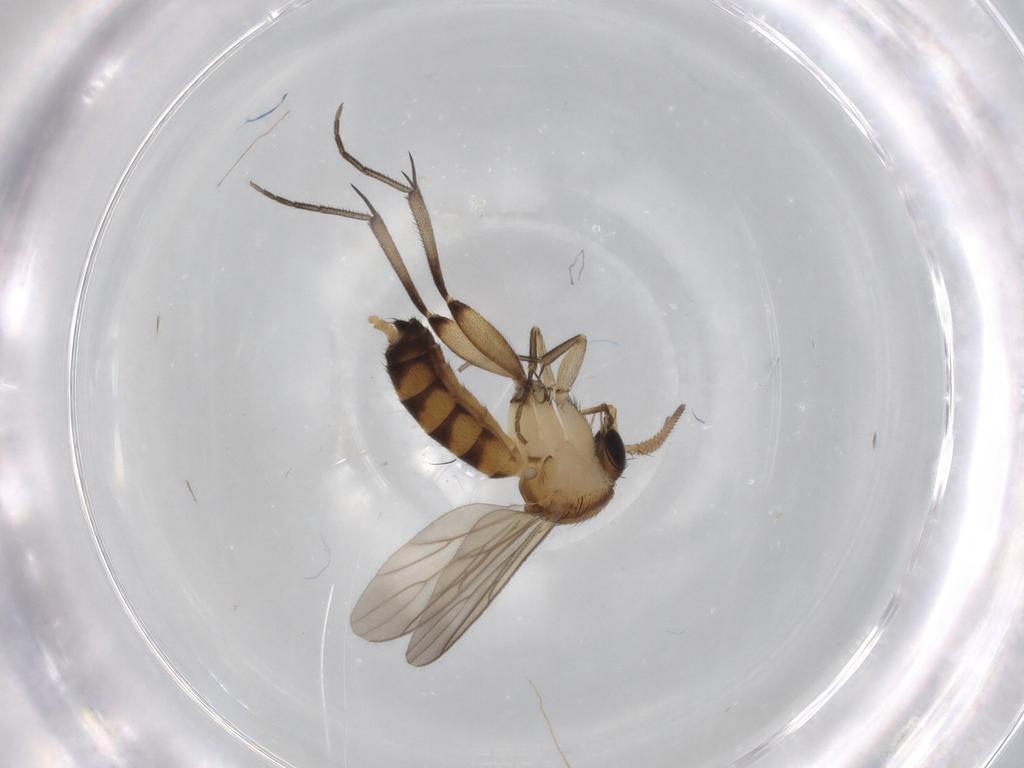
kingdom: Animalia
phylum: Arthropoda
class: Insecta
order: Diptera
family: Mycetophilidae
